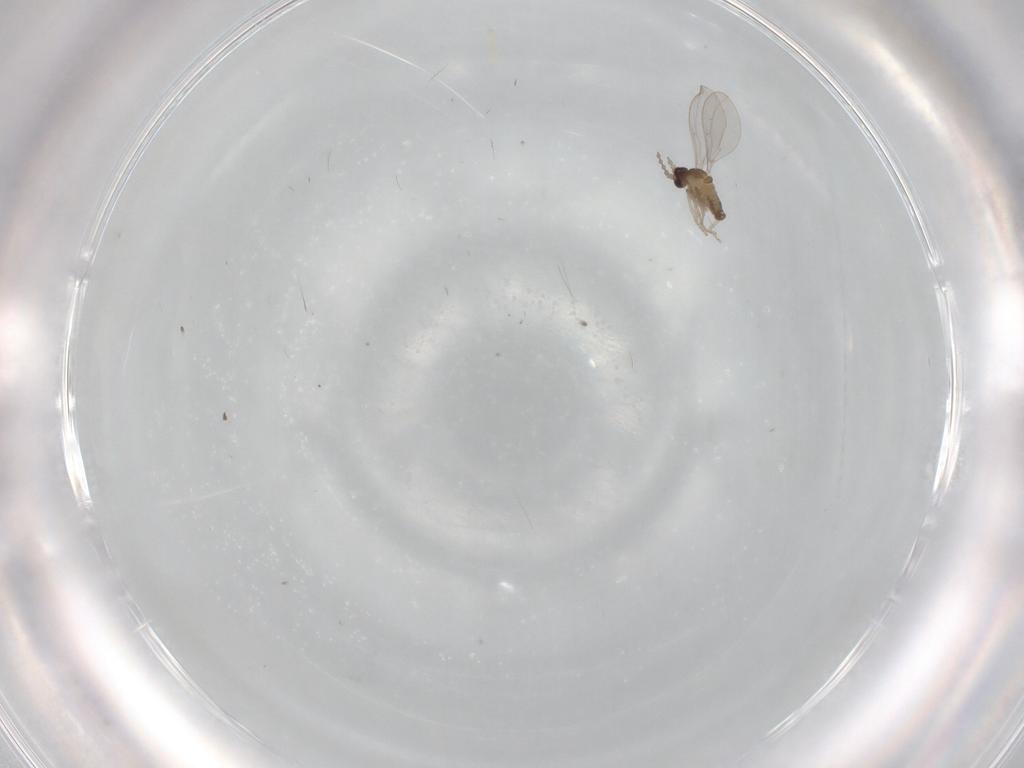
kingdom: Animalia
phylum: Arthropoda
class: Insecta
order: Diptera
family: Cecidomyiidae
